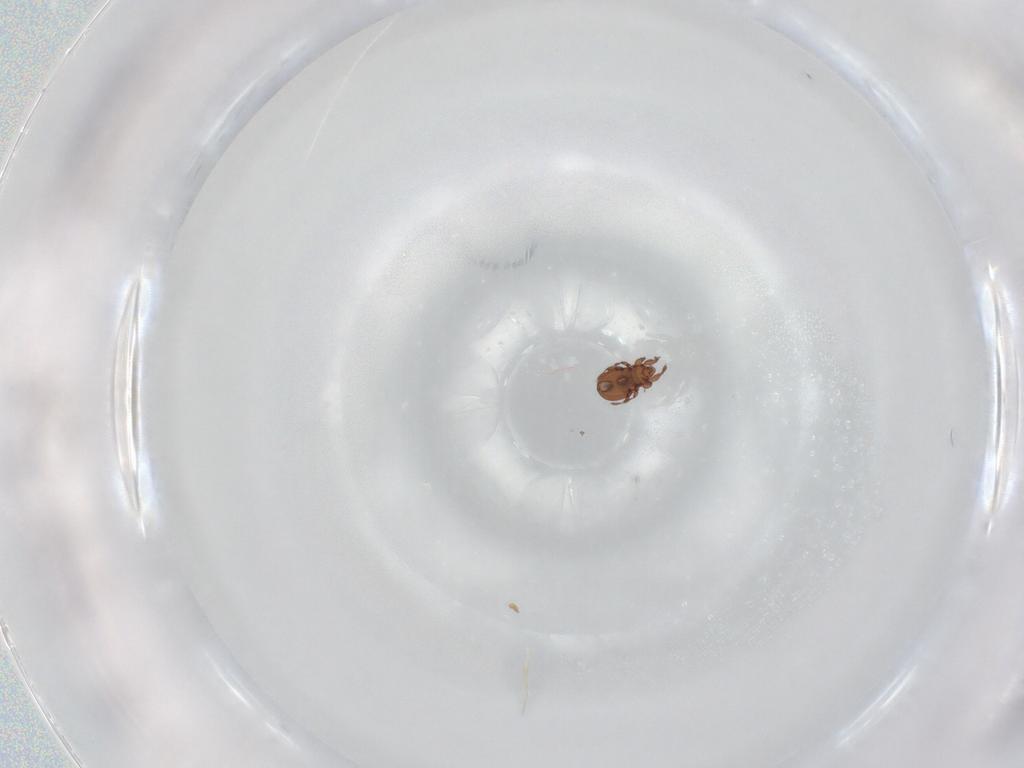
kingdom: Animalia
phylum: Arthropoda
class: Arachnida
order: Sarcoptiformes
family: Eremaeidae
